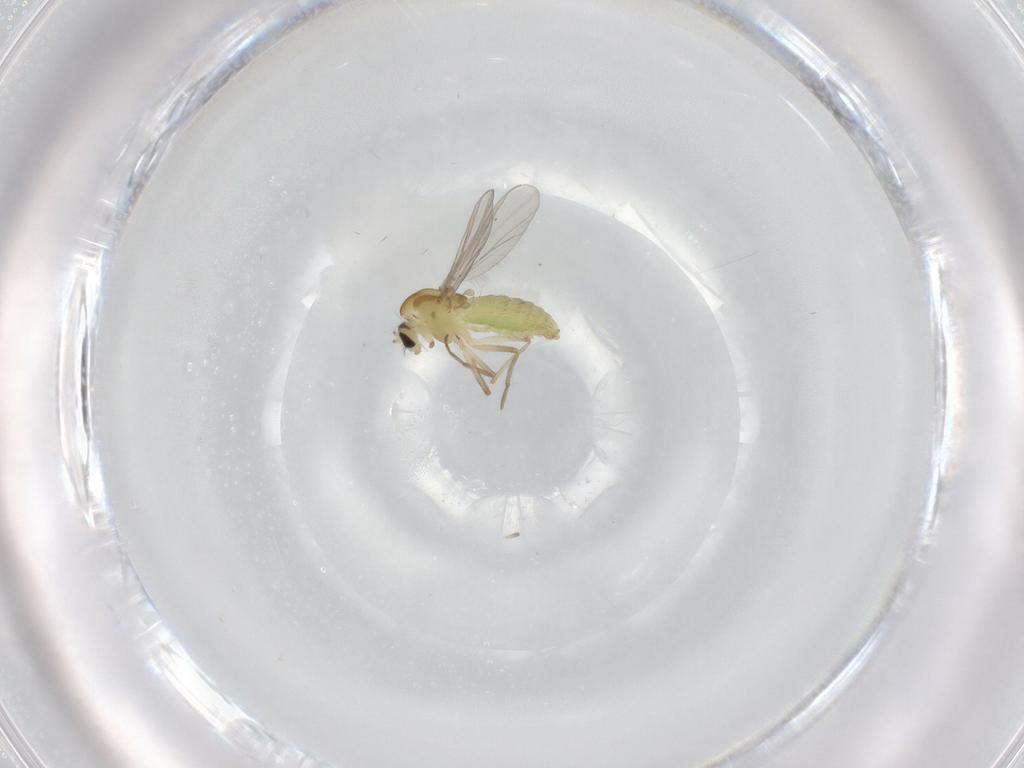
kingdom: Animalia
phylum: Arthropoda
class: Insecta
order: Diptera
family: Chironomidae
